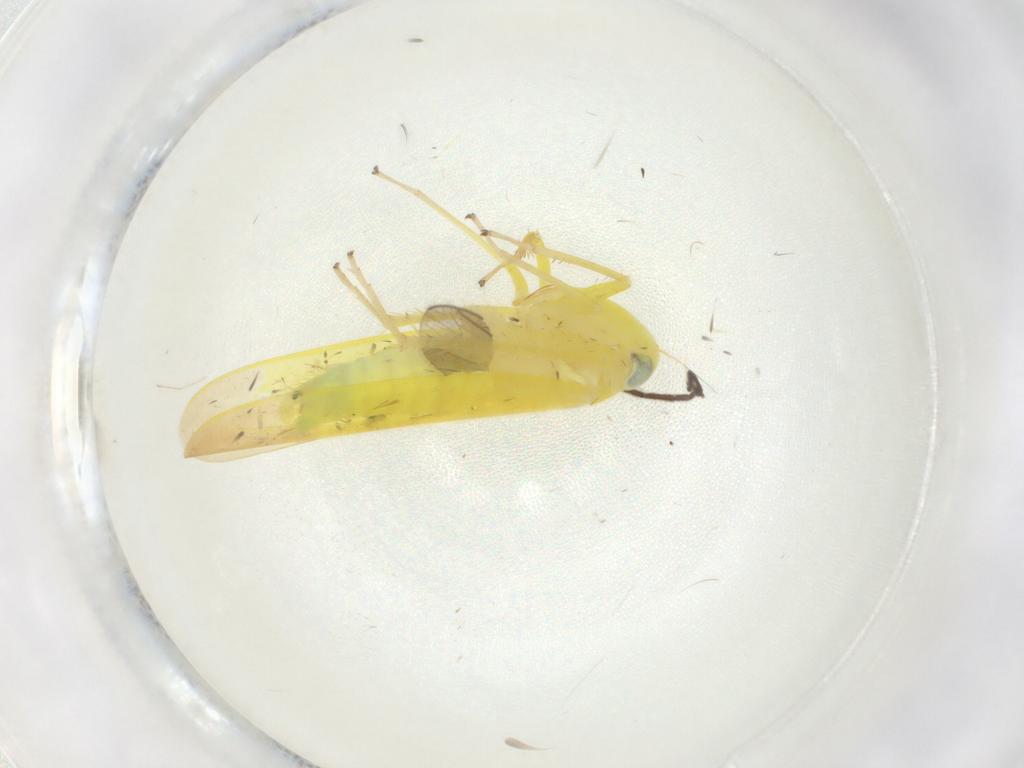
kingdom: Animalia
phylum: Arthropoda
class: Insecta
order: Hemiptera
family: Cicadellidae
